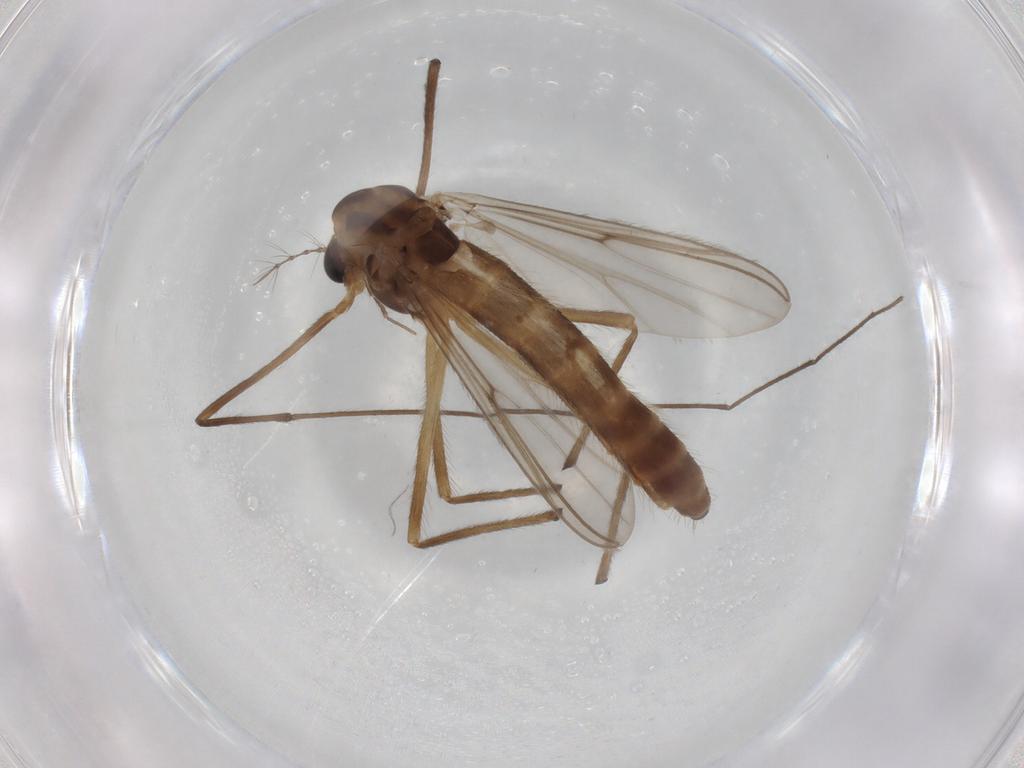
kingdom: Animalia
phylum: Arthropoda
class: Insecta
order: Diptera
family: Chironomidae
